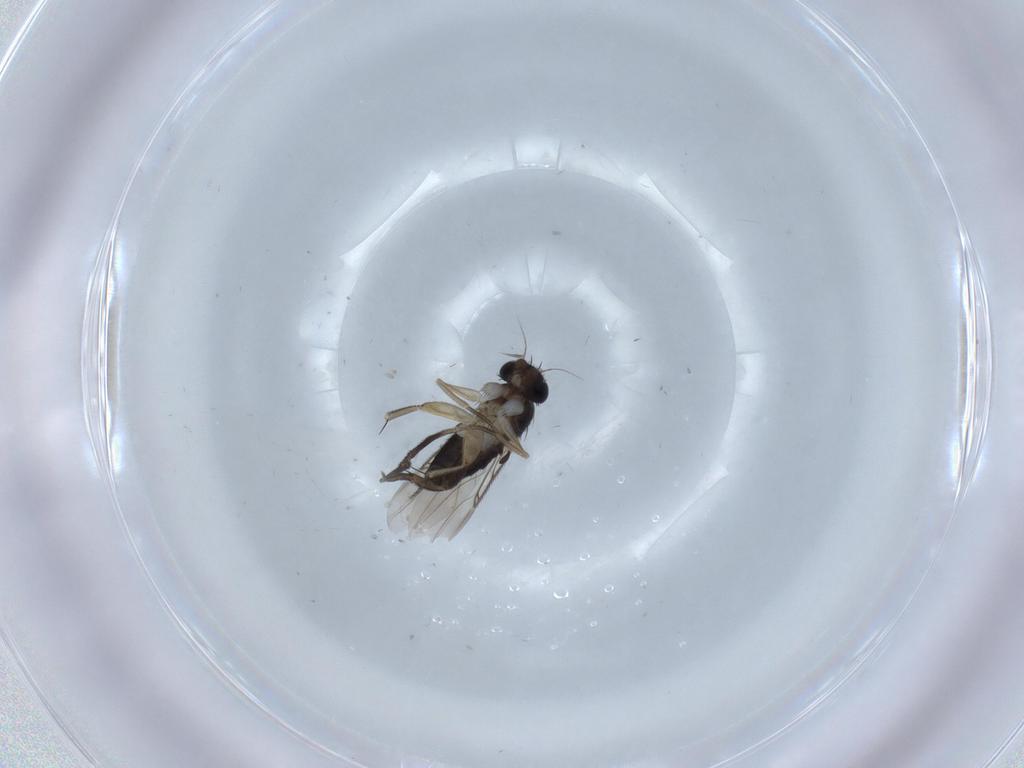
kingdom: Animalia
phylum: Arthropoda
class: Insecta
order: Diptera
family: Phoridae
